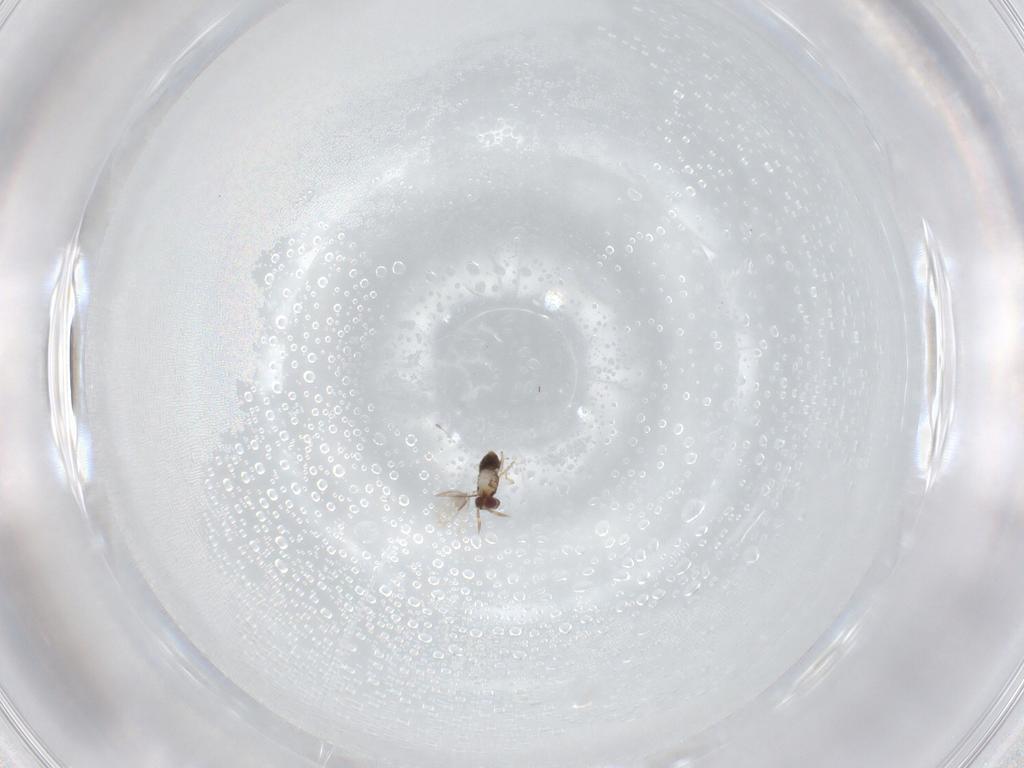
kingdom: Animalia
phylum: Arthropoda
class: Insecta
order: Hymenoptera
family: Aphelinidae
